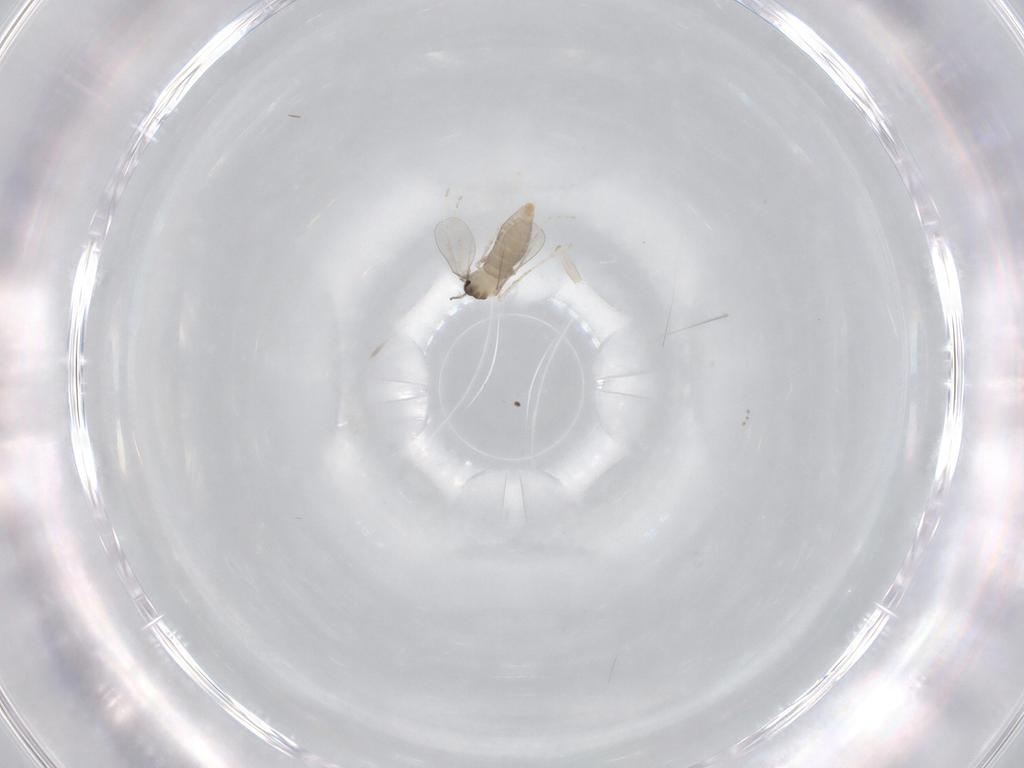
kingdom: Animalia
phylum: Arthropoda
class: Insecta
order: Diptera
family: Cecidomyiidae
